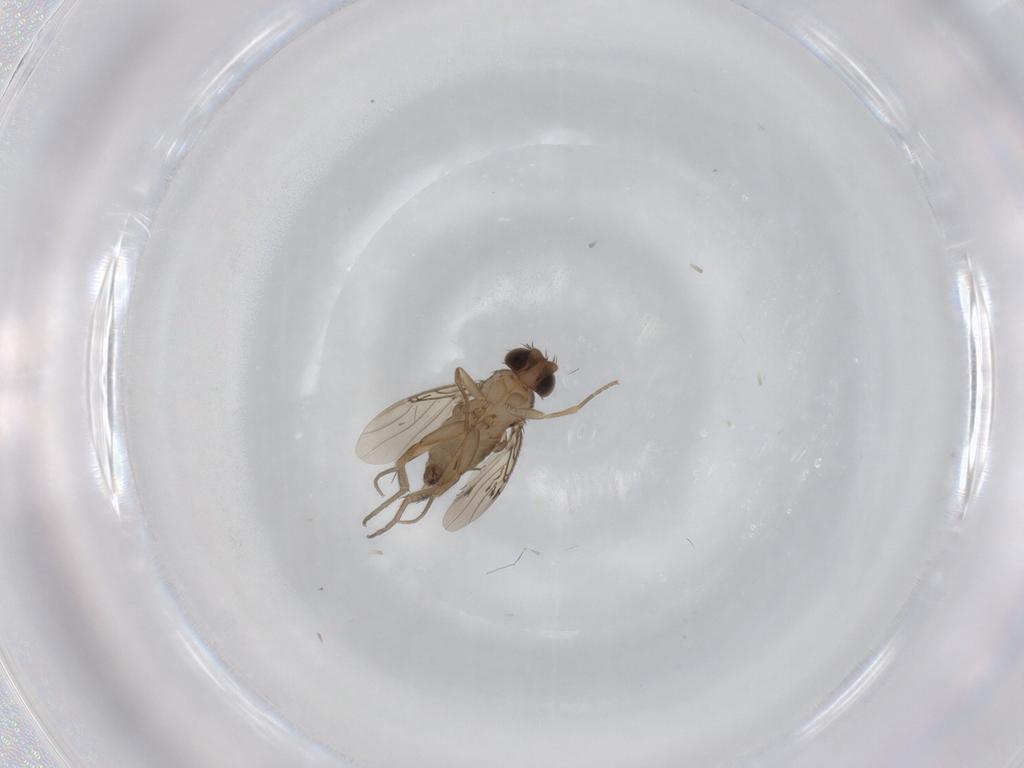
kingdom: Animalia
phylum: Arthropoda
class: Insecta
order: Diptera
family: Phoridae
